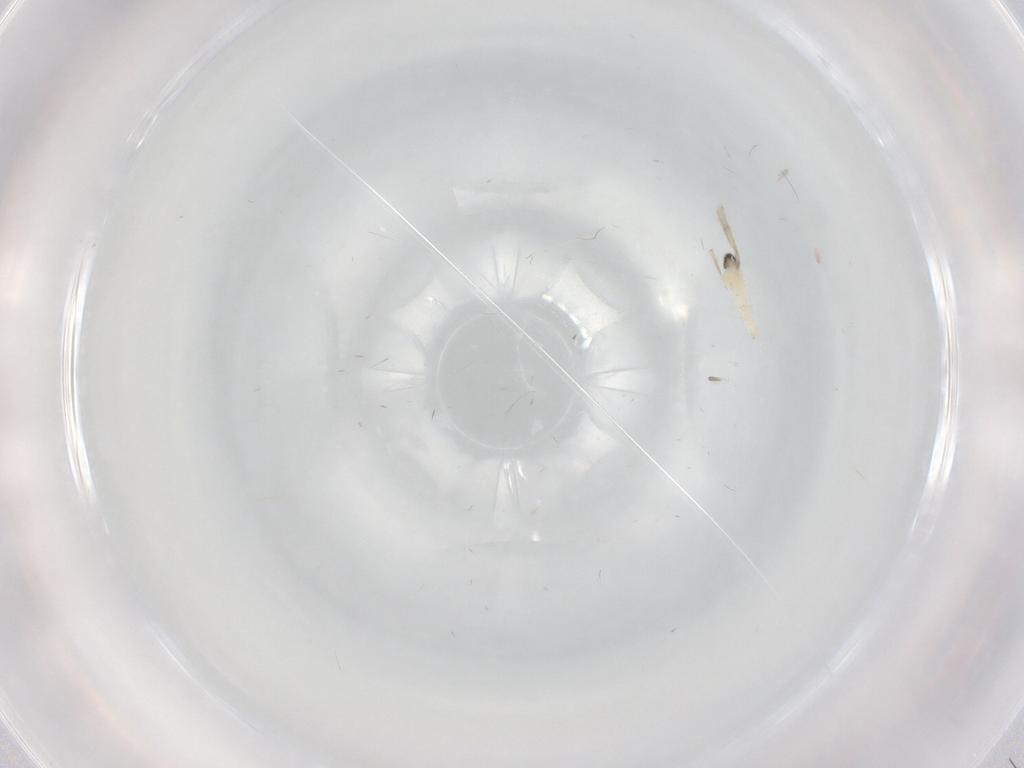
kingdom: Animalia
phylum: Arthropoda
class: Insecta
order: Diptera
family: Cecidomyiidae
